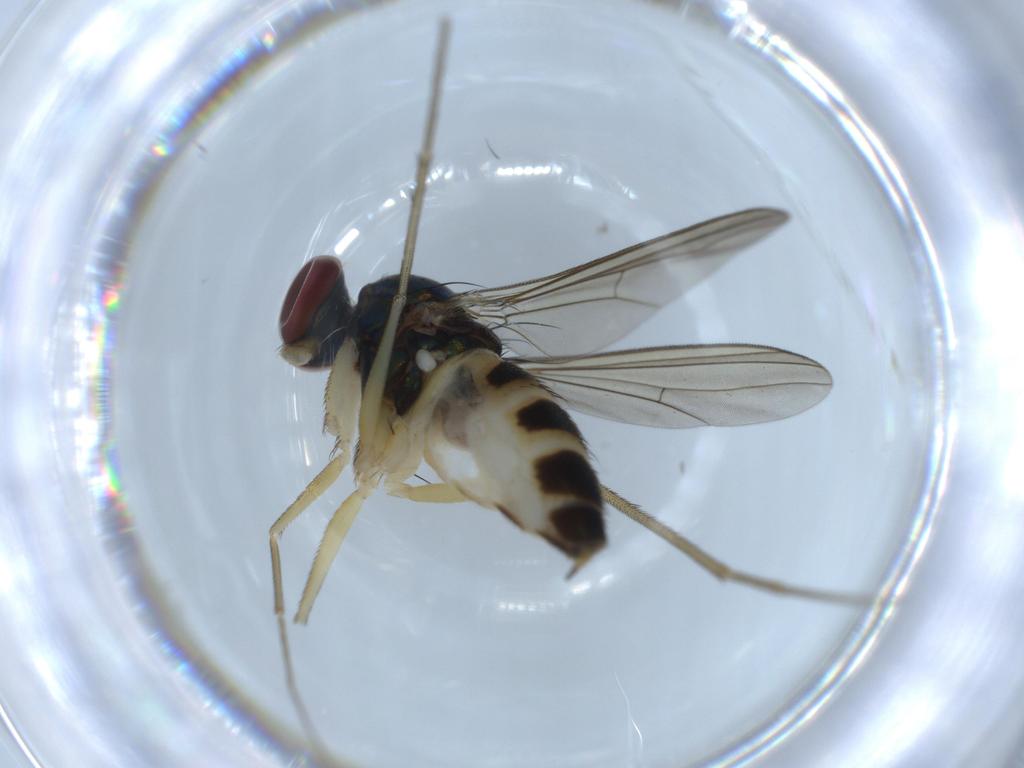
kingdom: Animalia
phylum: Arthropoda
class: Insecta
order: Diptera
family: Dolichopodidae
